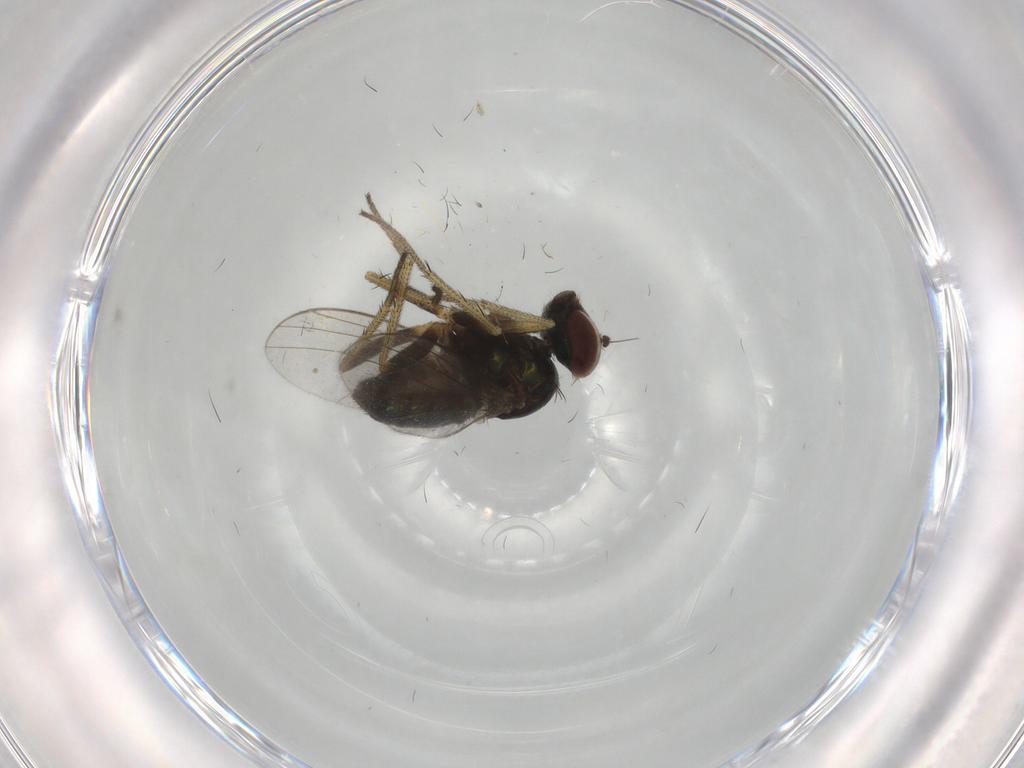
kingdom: Animalia
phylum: Arthropoda
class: Insecta
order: Diptera
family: Dolichopodidae
